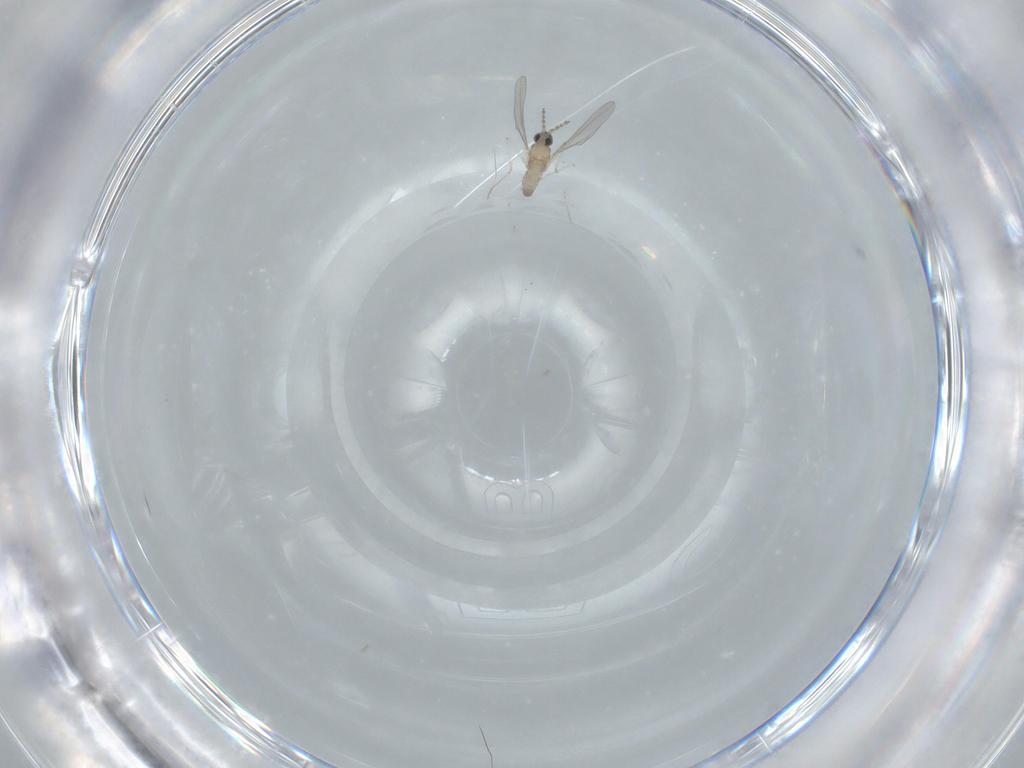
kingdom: Animalia
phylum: Arthropoda
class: Insecta
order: Diptera
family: Cecidomyiidae
